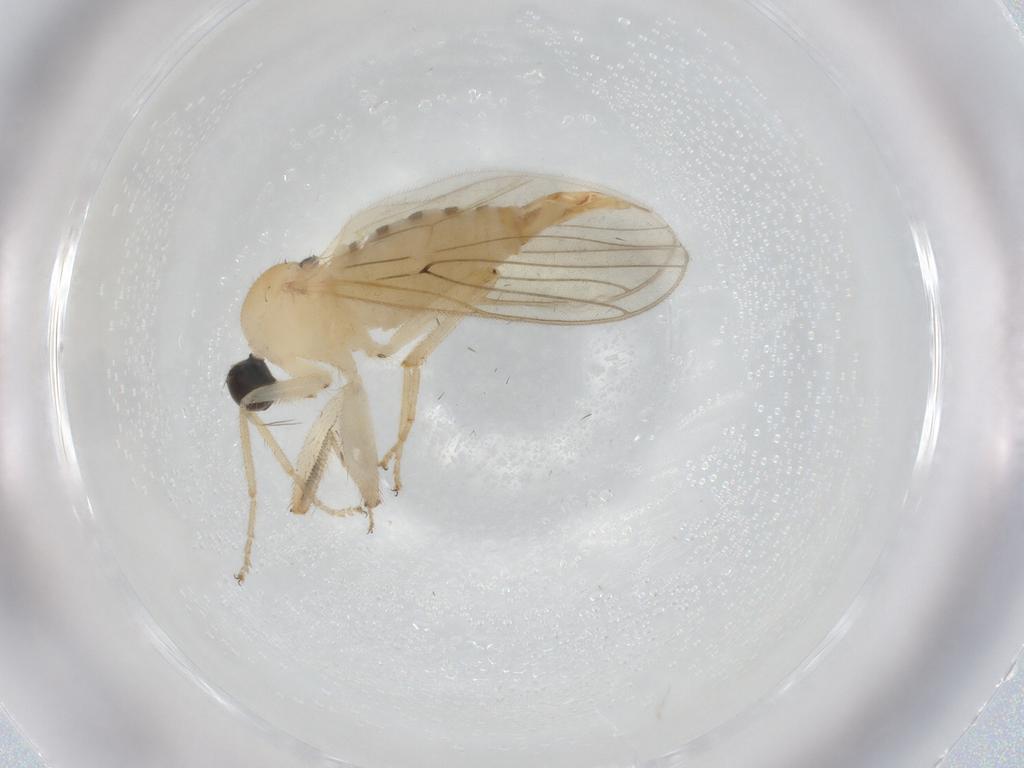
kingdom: Animalia
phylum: Arthropoda
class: Insecta
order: Diptera
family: Hybotidae
